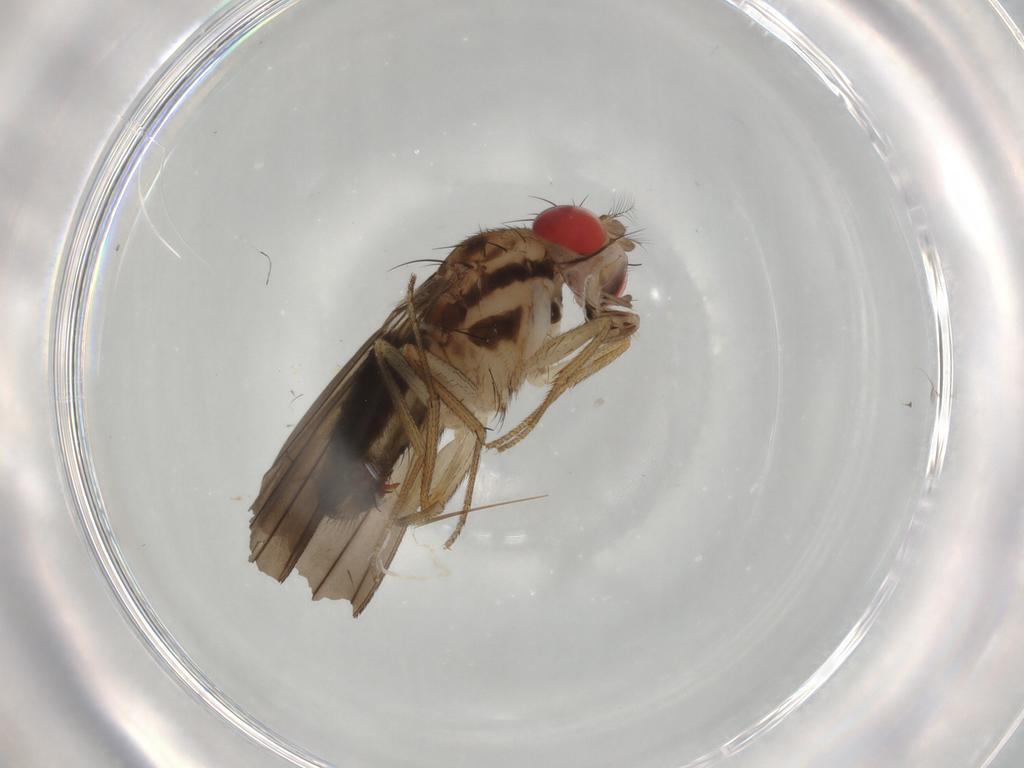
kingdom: Animalia
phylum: Arthropoda
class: Insecta
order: Diptera
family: Drosophilidae
